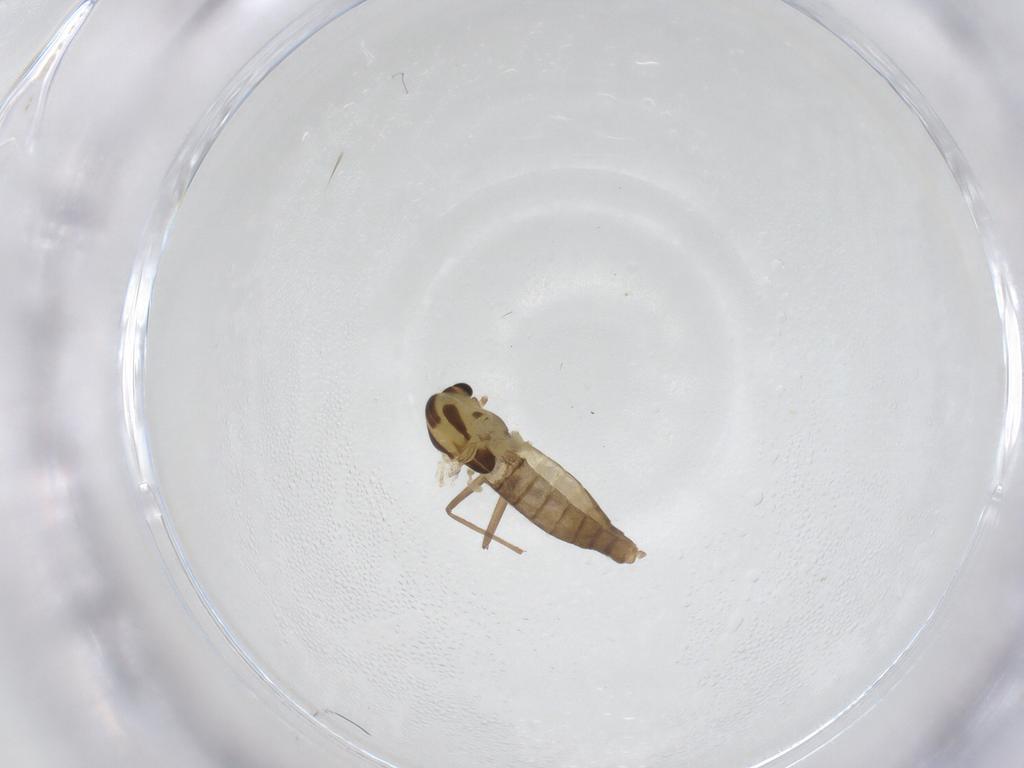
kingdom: Animalia
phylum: Arthropoda
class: Insecta
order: Diptera
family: Chironomidae
